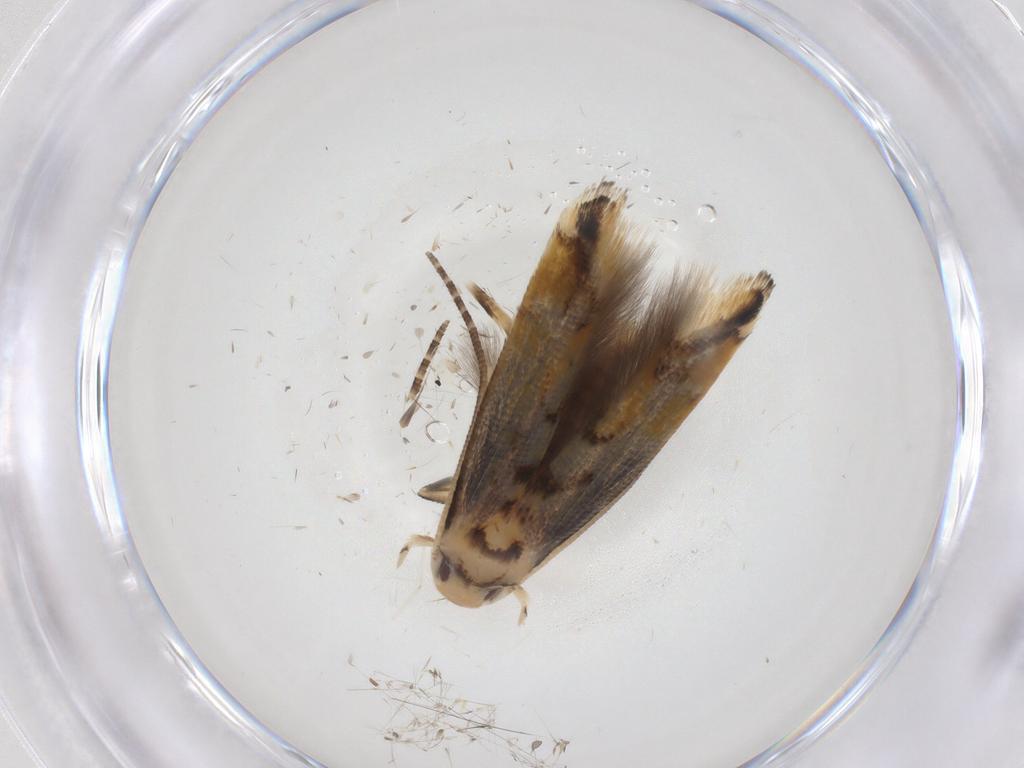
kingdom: Animalia
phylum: Arthropoda
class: Insecta
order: Lepidoptera
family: Momphidae
